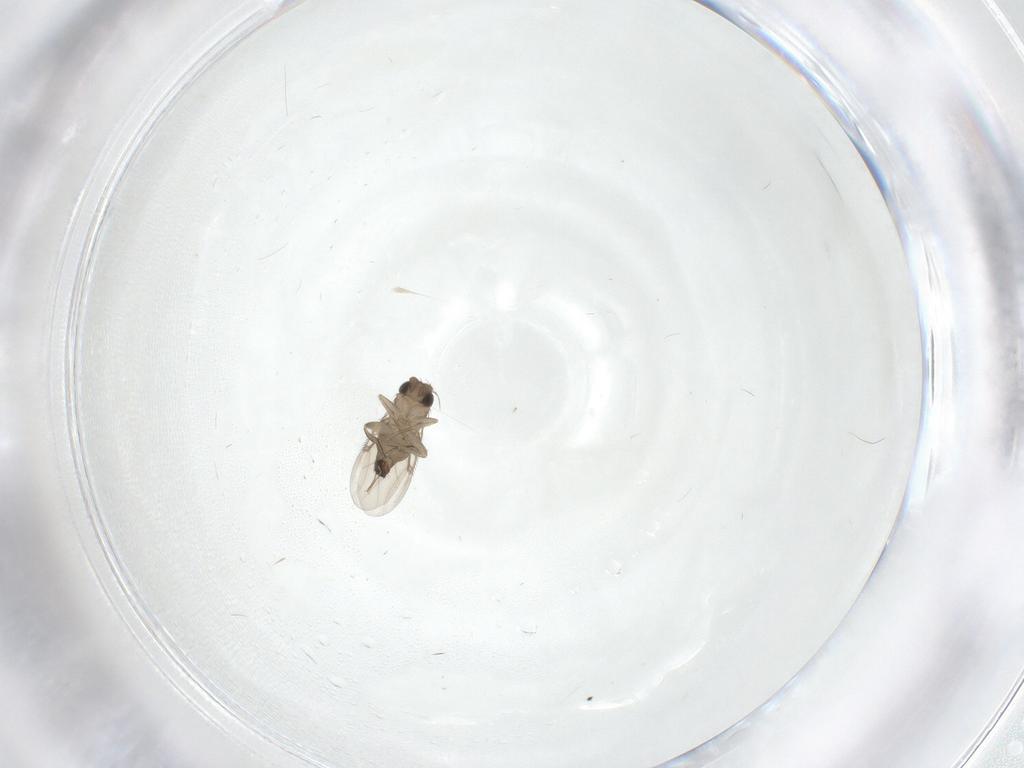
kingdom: Animalia
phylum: Arthropoda
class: Insecta
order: Diptera
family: Phoridae
